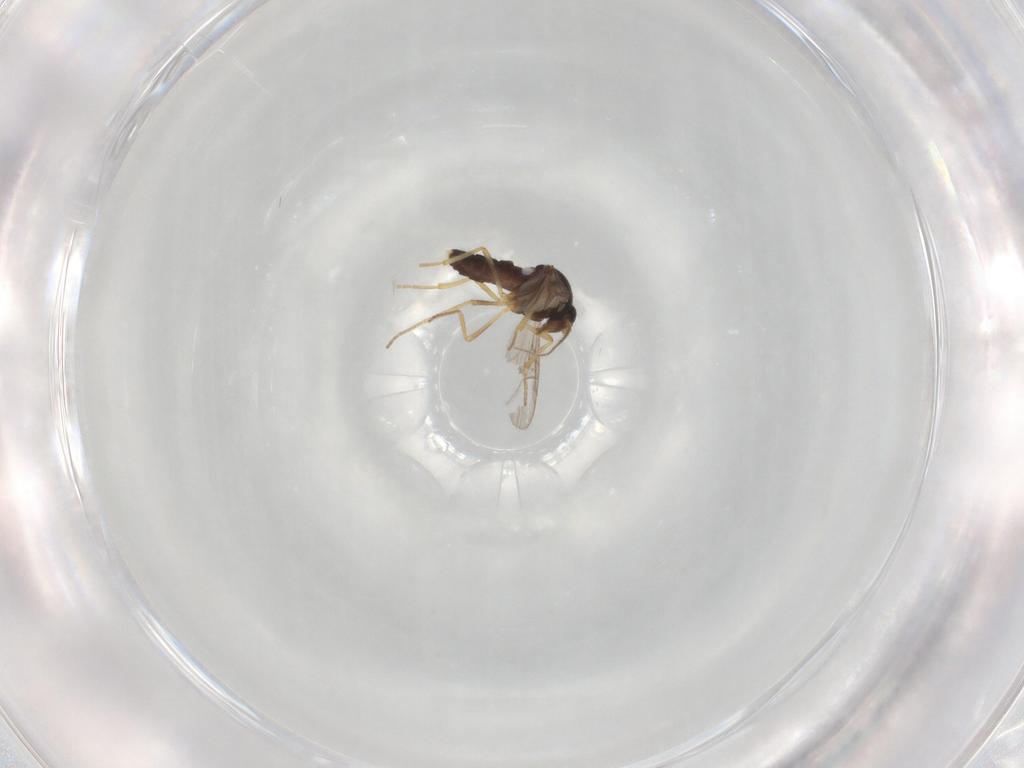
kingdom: Animalia
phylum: Arthropoda
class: Insecta
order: Diptera
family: Ceratopogonidae
